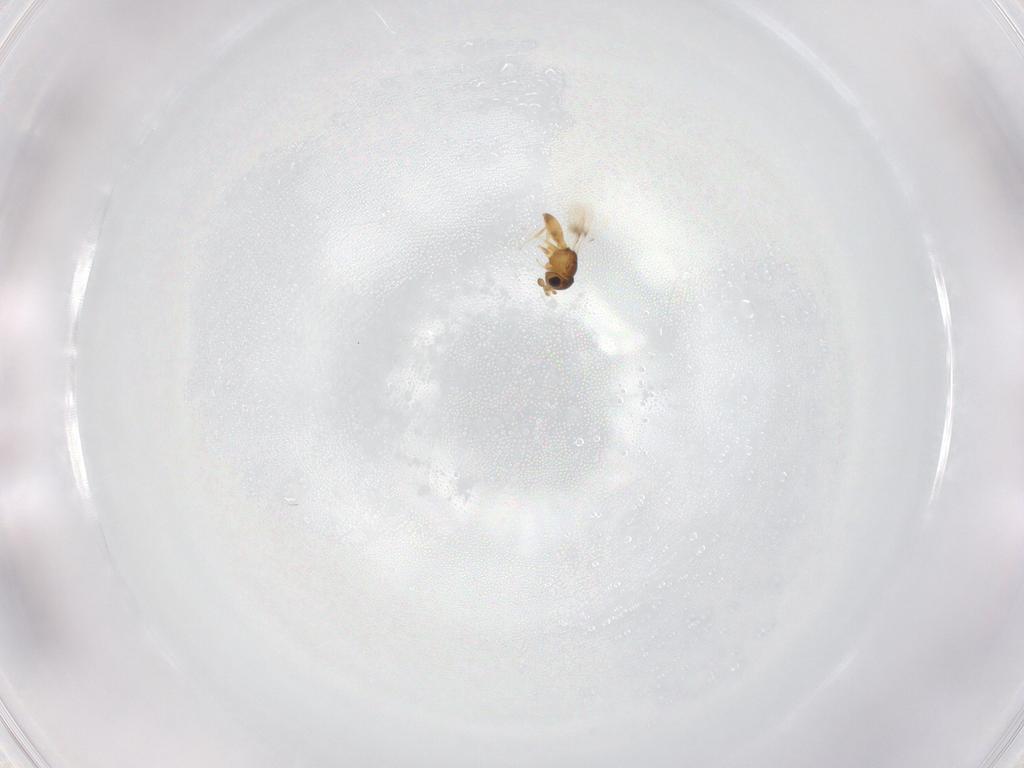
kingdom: Animalia
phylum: Arthropoda
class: Insecta
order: Hymenoptera
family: Scelionidae
